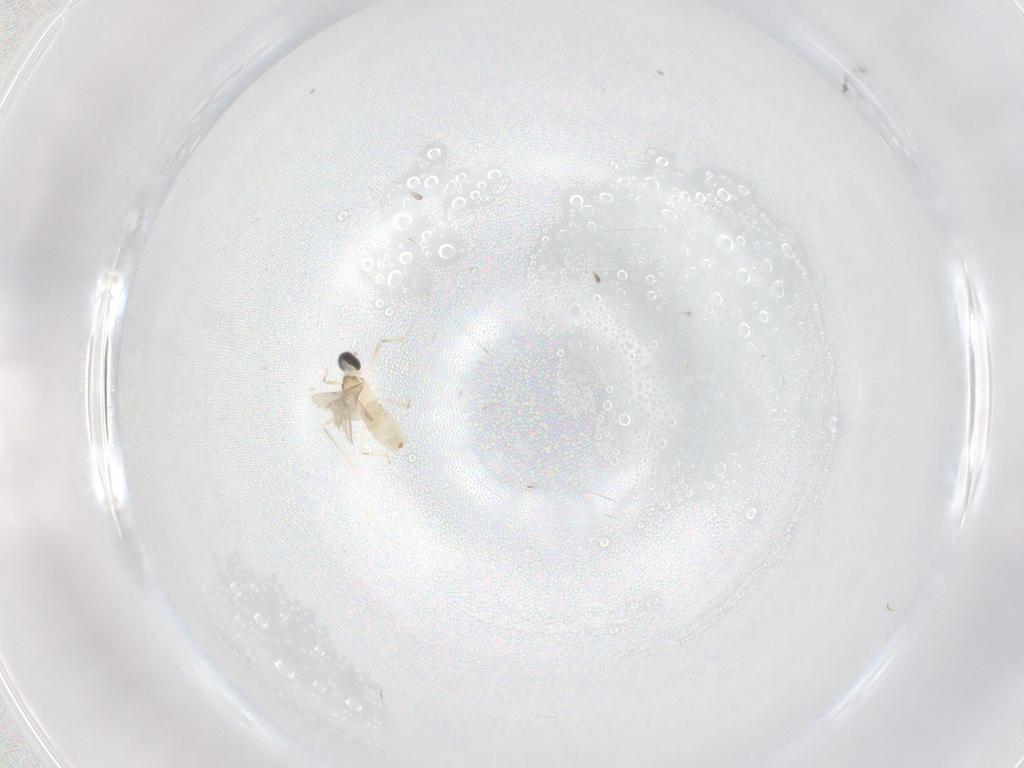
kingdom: Animalia
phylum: Arthropoda
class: Insecta
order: Diptera
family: Cecidomyiidae
